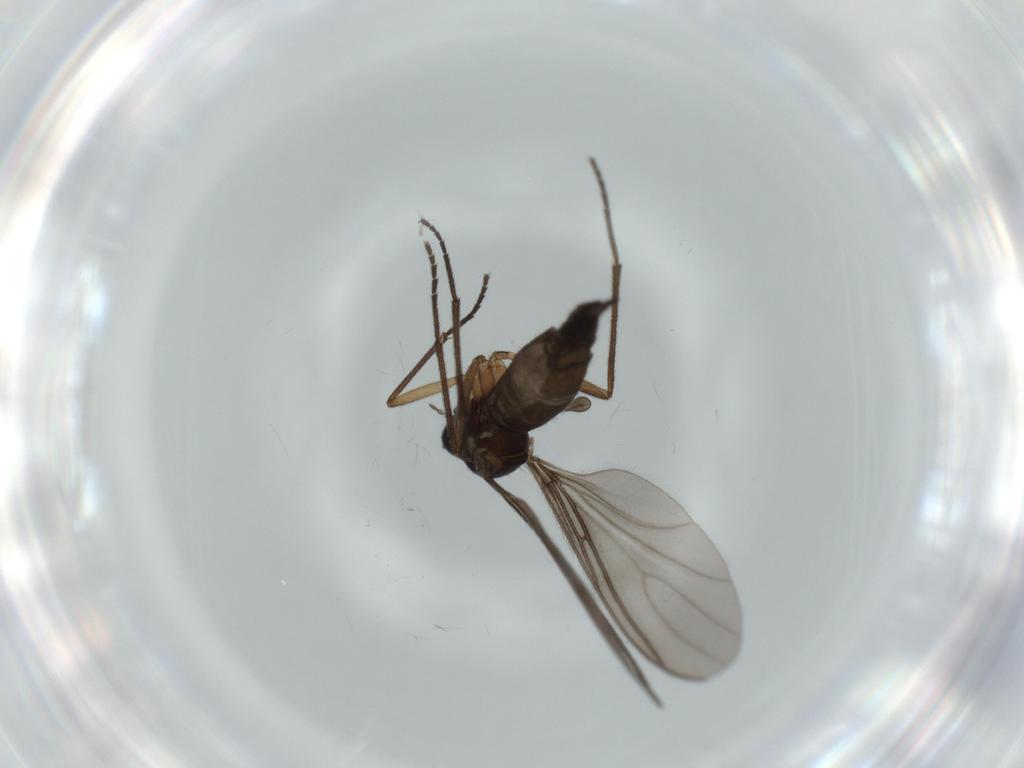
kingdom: Animalia
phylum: Arthropoda
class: Insecta
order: Diptera
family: Sciaridae
